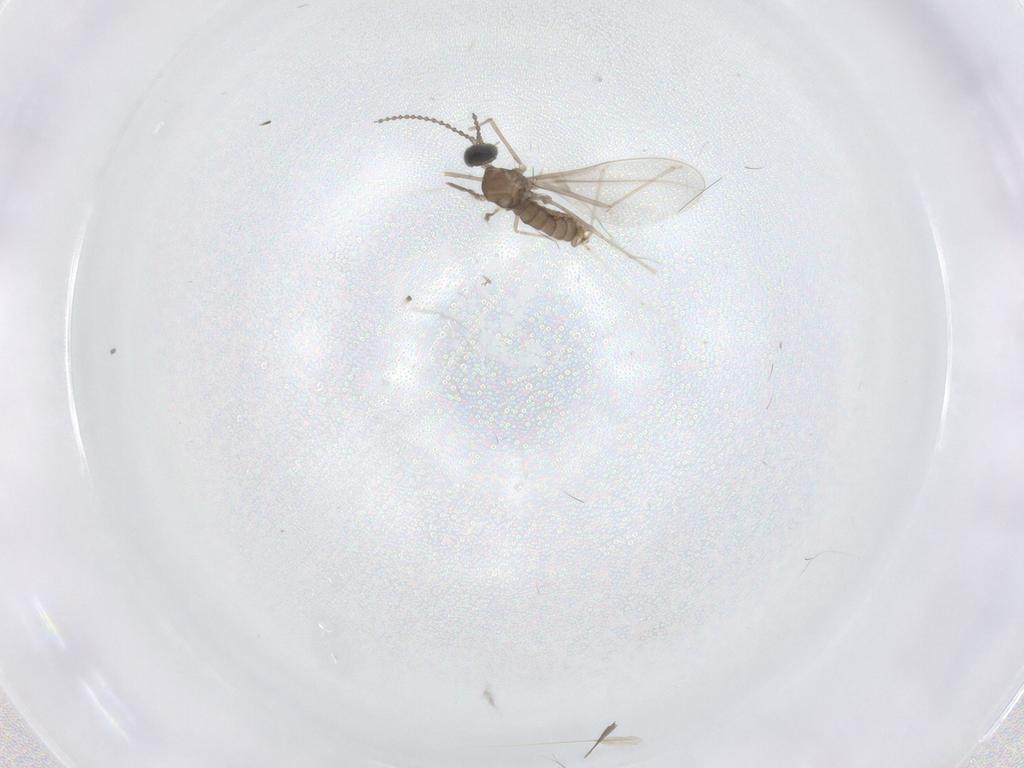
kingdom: Animalia
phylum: Arthropoda
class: Insecta
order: Diptera
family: Cecidomyiidae
